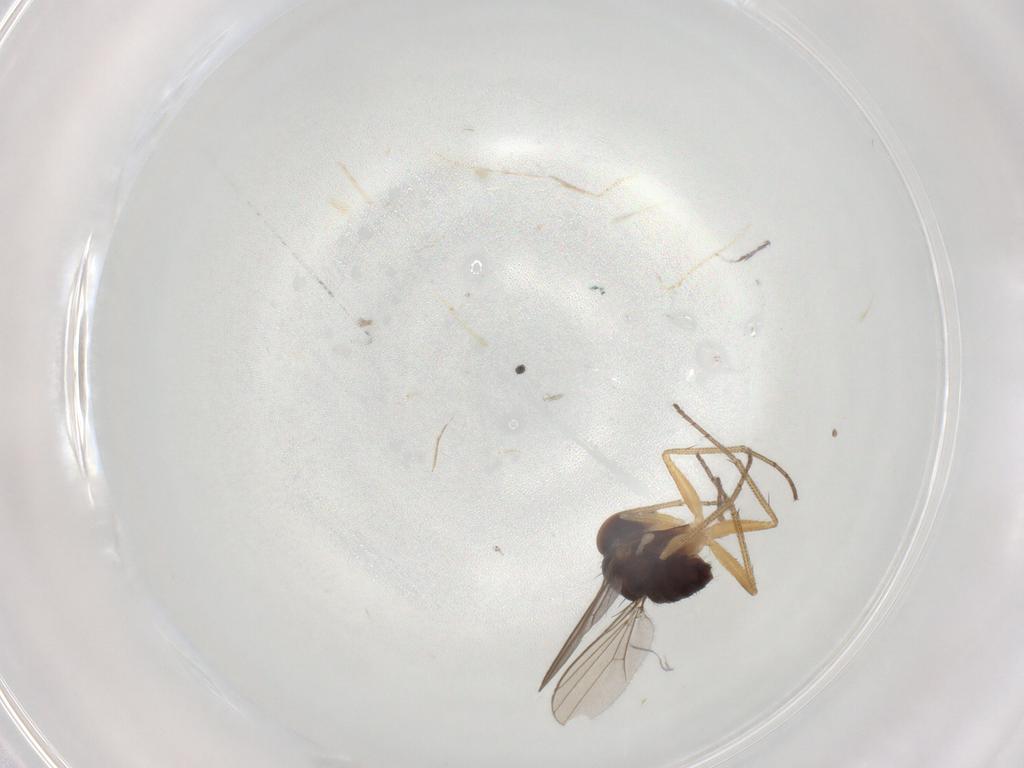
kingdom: Animalia
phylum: Arthropoda
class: Insecta
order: Diptera
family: Dolichopodidae
